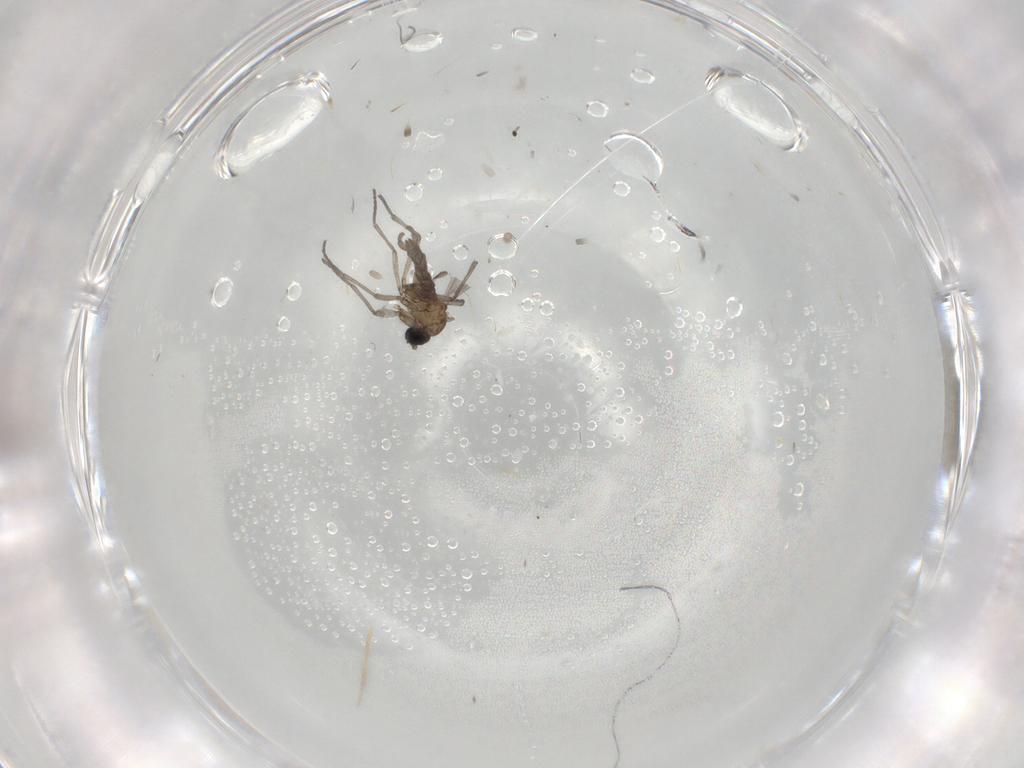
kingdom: Animalia
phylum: Arthropoda
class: Insecta
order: Diptera
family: Sciaridae
